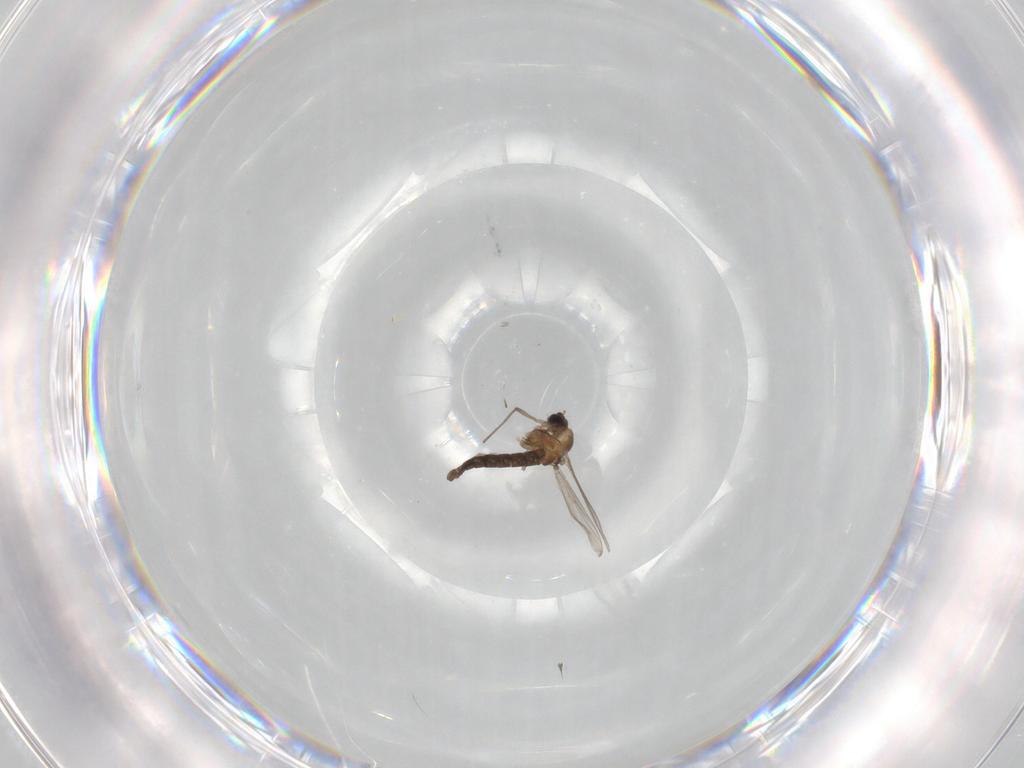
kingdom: Animalia
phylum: Arthropoda
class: Insecta
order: Diptera
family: Chironomidae
